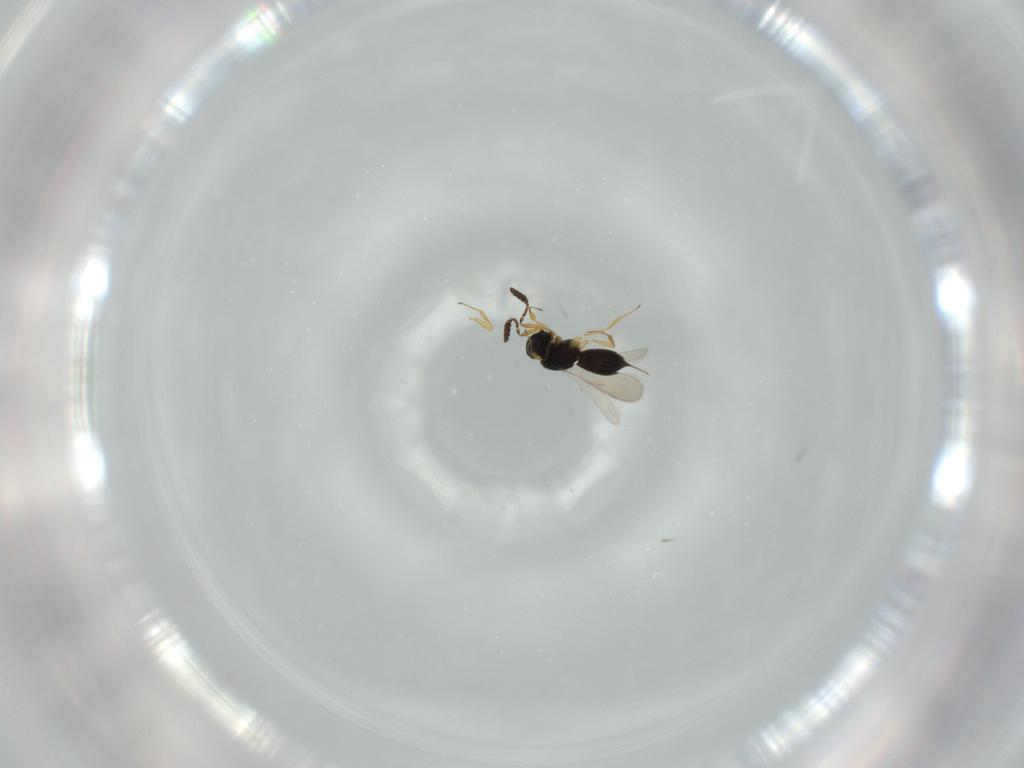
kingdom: Animalia
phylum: Arthropoda
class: Insecta
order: Hymenoptera
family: Scelionidae
